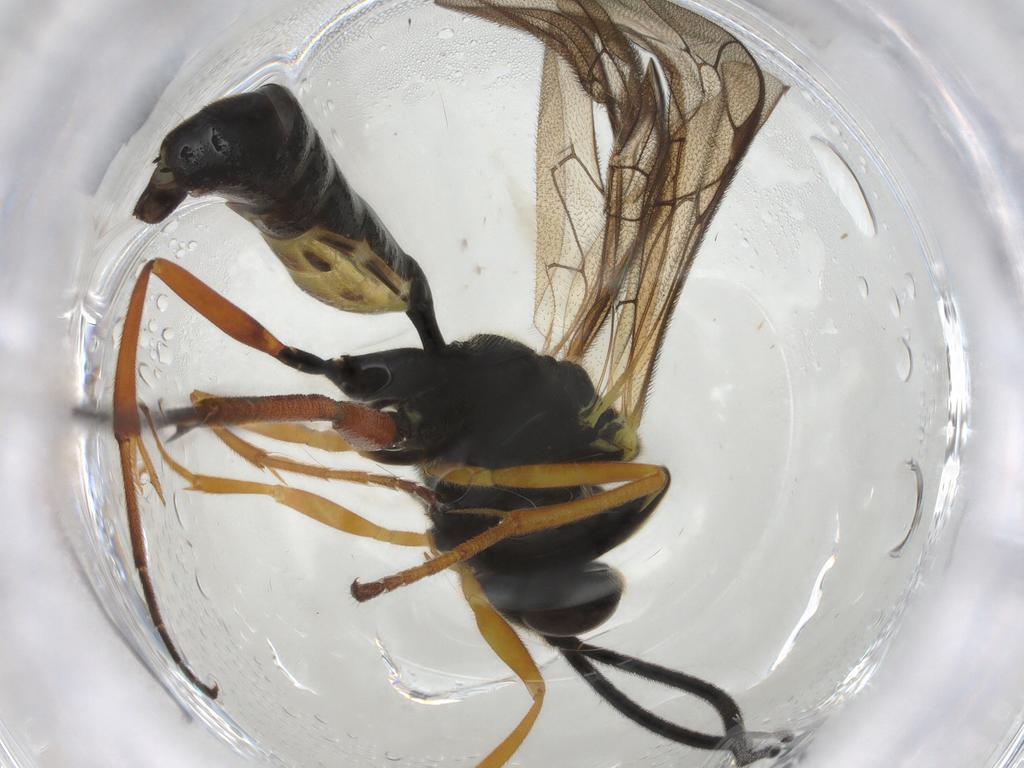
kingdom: Animalia
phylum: Arthropoda
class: Insecta
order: Hymenoptera
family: Ichneumonidae
